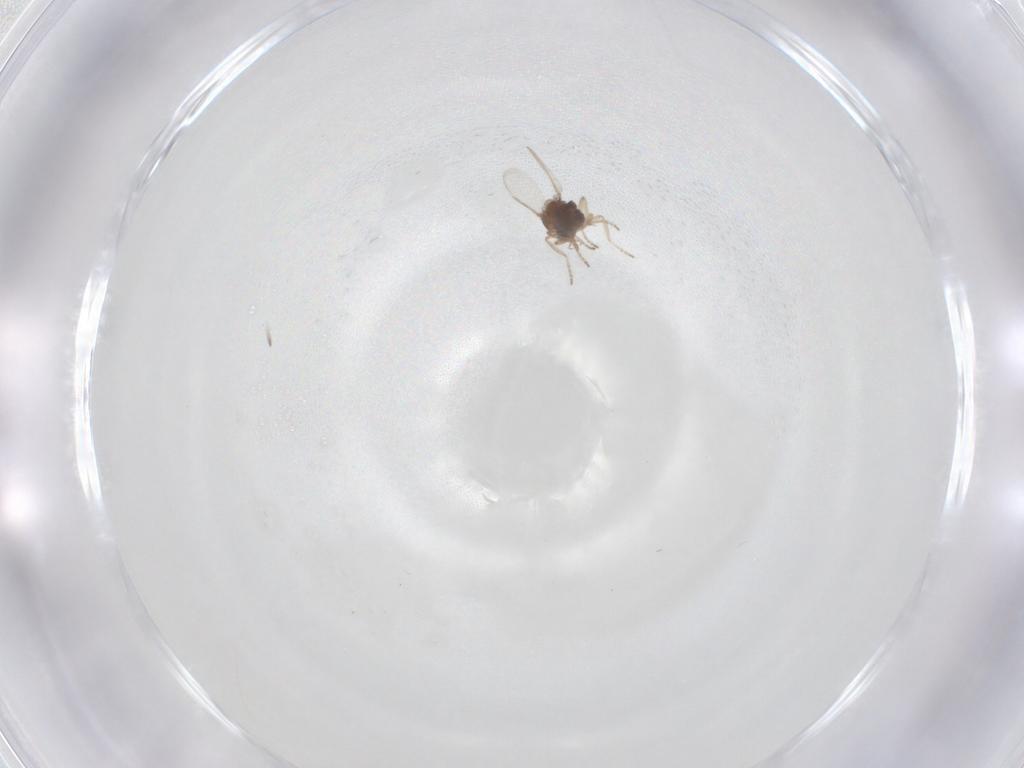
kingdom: Animalia
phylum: Arthropoda
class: Insecta
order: Diptera
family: Ceratopogonidae
